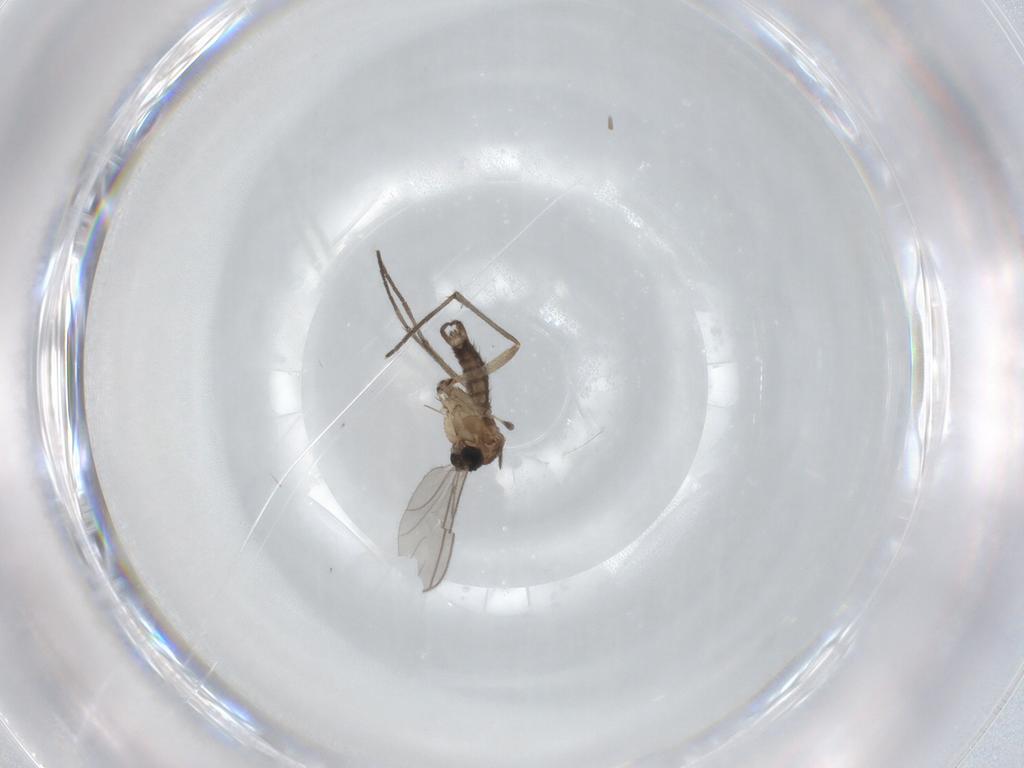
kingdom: Animalia
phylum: Arthropoda
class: Insecta
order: Diptera
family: Sciaridae
